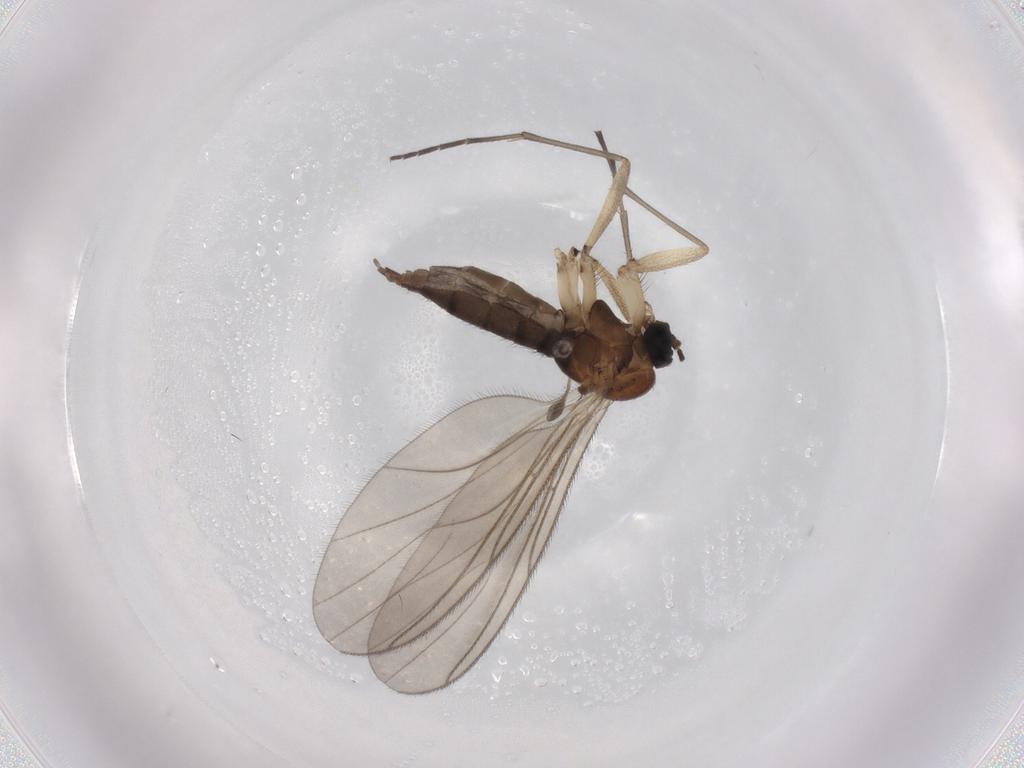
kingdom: Animalia
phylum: Arthropoda
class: Insecta
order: Diptera
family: Sciaridae
